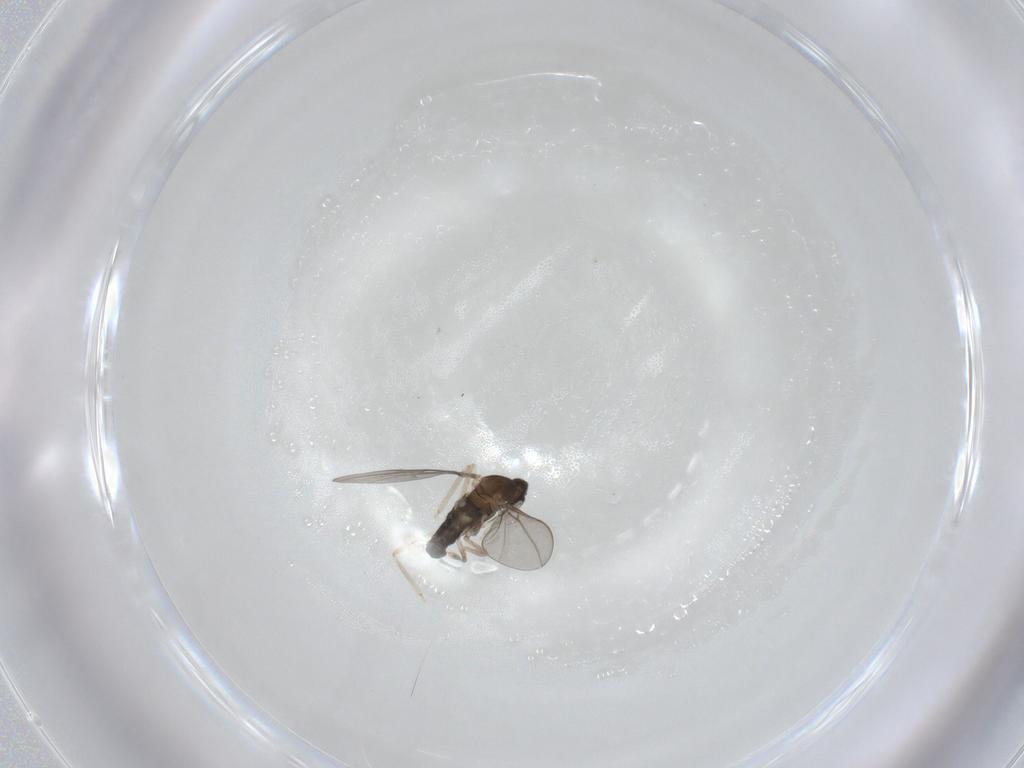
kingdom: Animalia
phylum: Arthropoda
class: Insecta
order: Diptera
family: Cecidomyiidae
